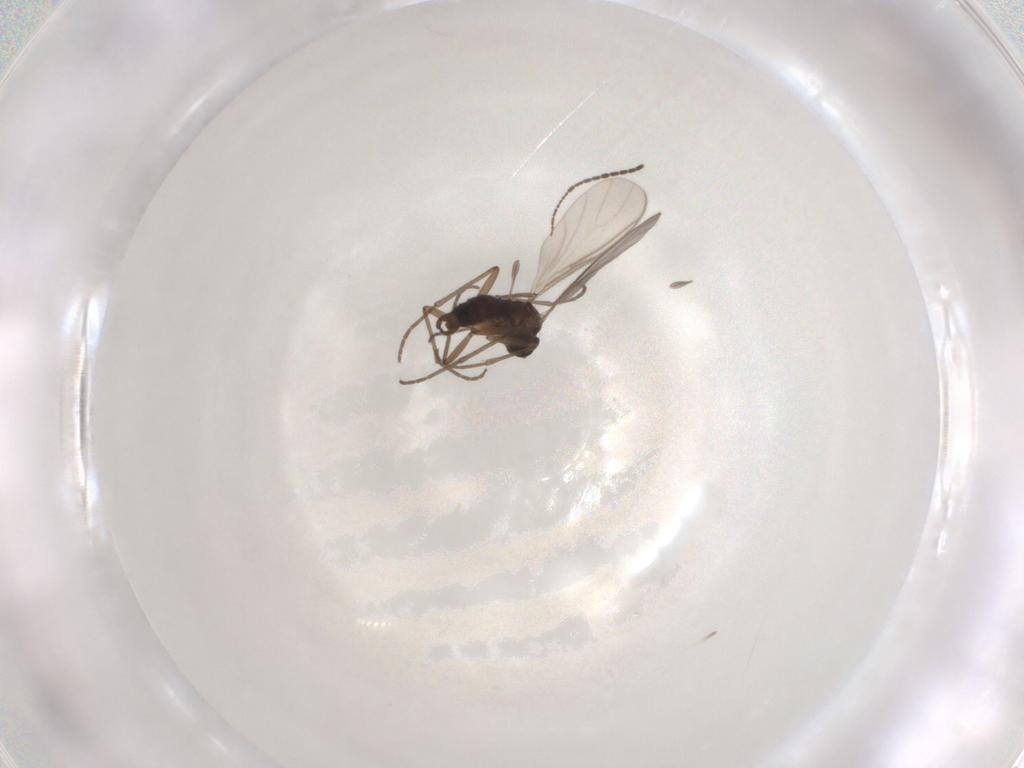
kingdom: Animalia
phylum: Arthropoda
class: Insecta
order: Diptera
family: Sciaridae
